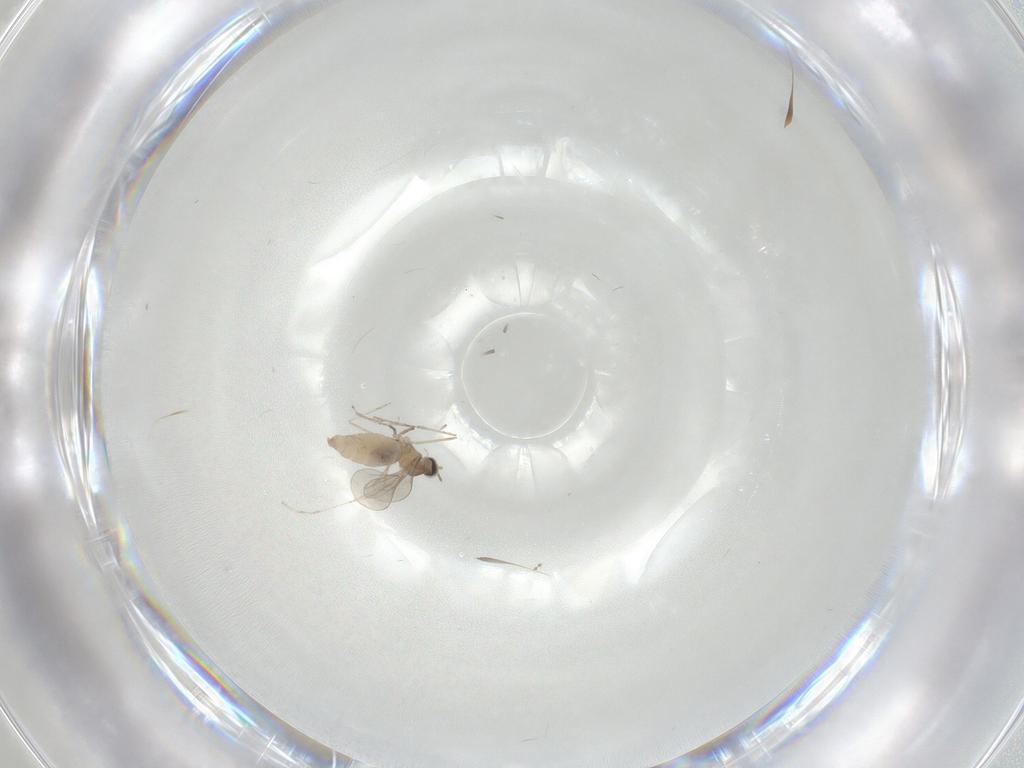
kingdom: Animalia
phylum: Arthropoda
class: Insecta
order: Diptera
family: Cecidomyiidae
